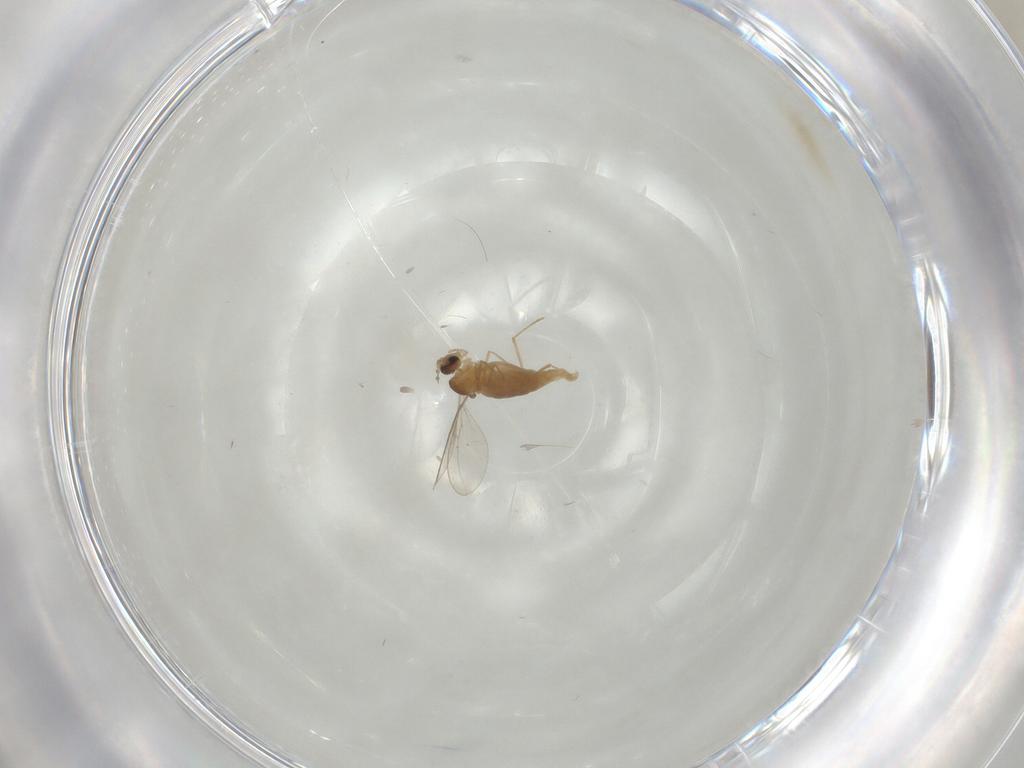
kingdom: Animalia
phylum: Arthropoda
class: Insecta
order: Diptera
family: Cecidomyiidae
